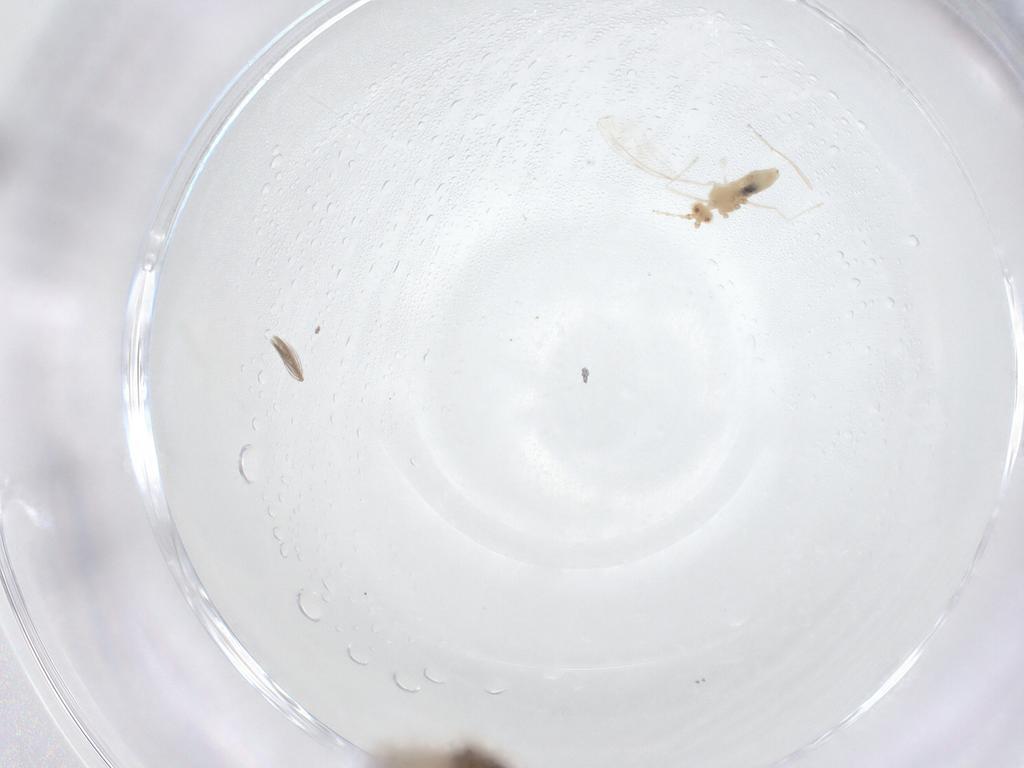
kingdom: Animalia
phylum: Arthropoda
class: Insecta
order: Diptera
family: Ceratopogonidae
